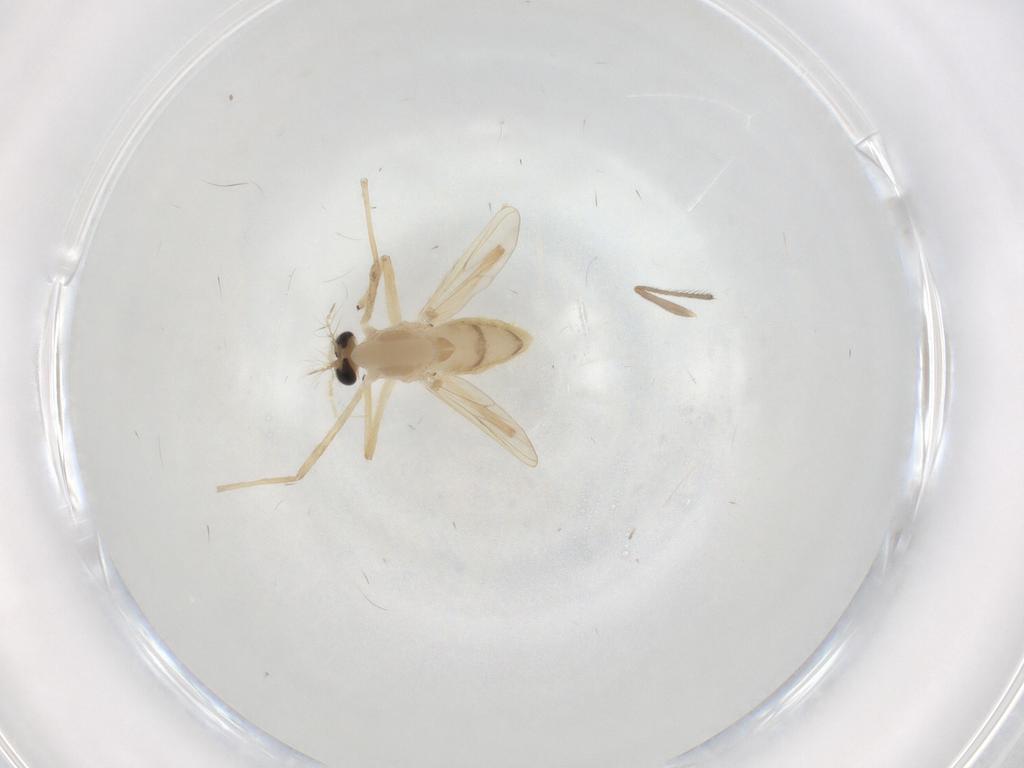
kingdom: Animalia
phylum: Arthropoda
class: Insecta
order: Diptera
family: Chironomidae
